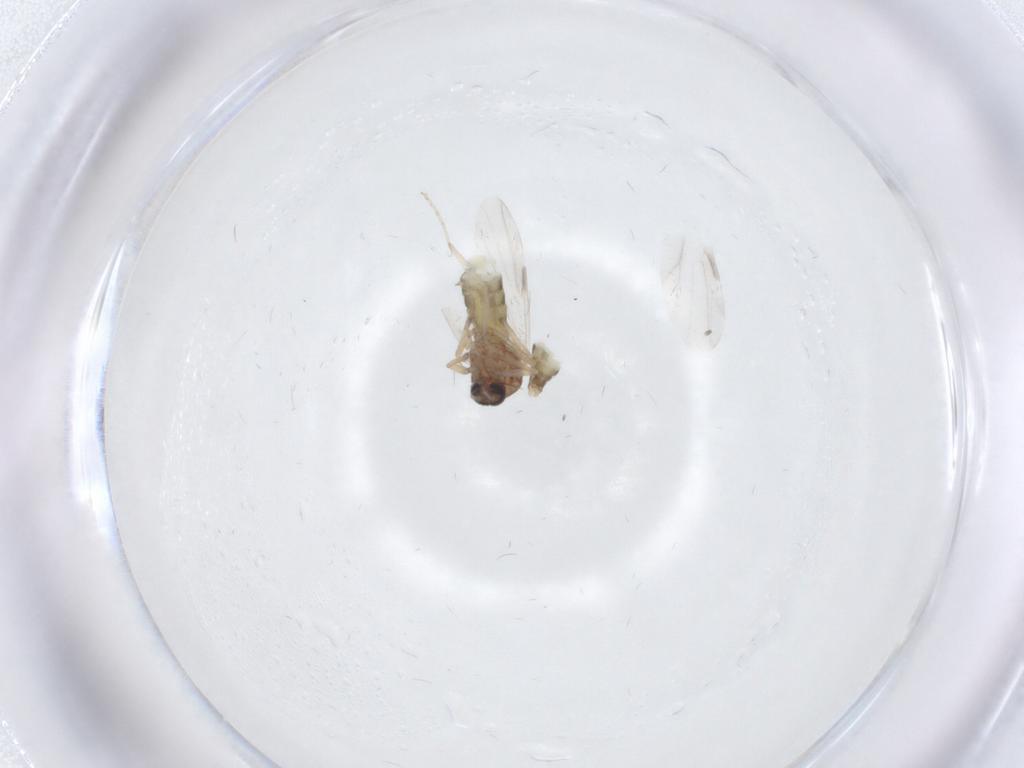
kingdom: Animalia
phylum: Arthropoda
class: Insecta
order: Diptera
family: Ceratopogonidae
